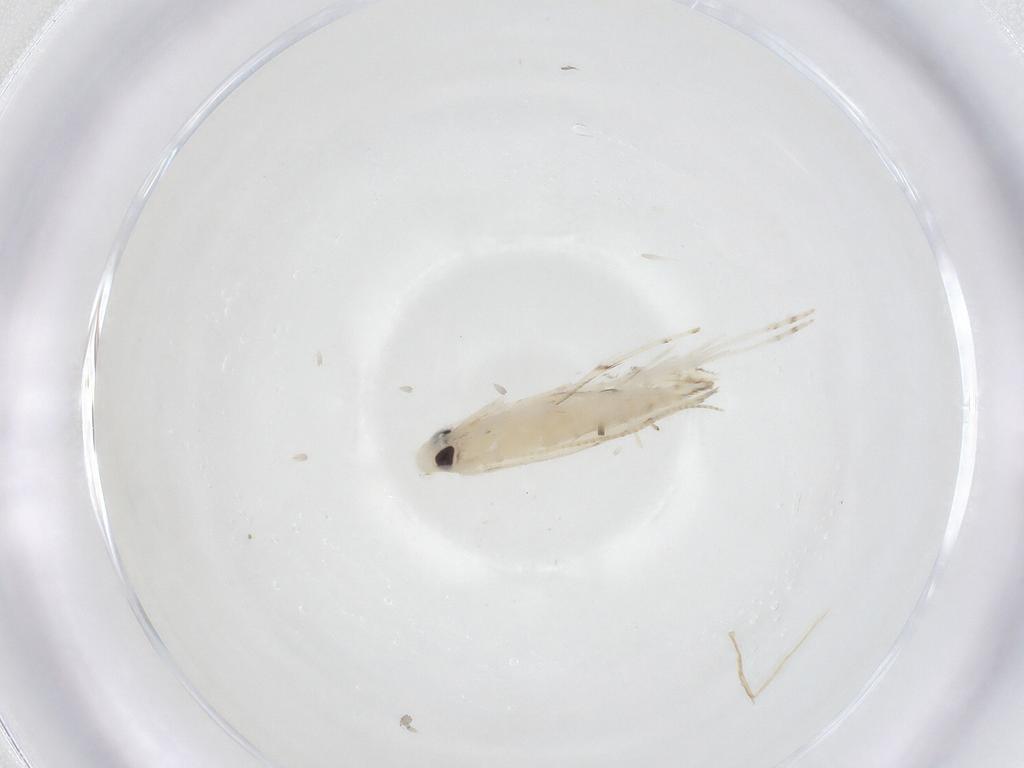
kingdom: Animalia
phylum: Arthropoda
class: Insecta
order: Lepidoptera
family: Gracillariidae
